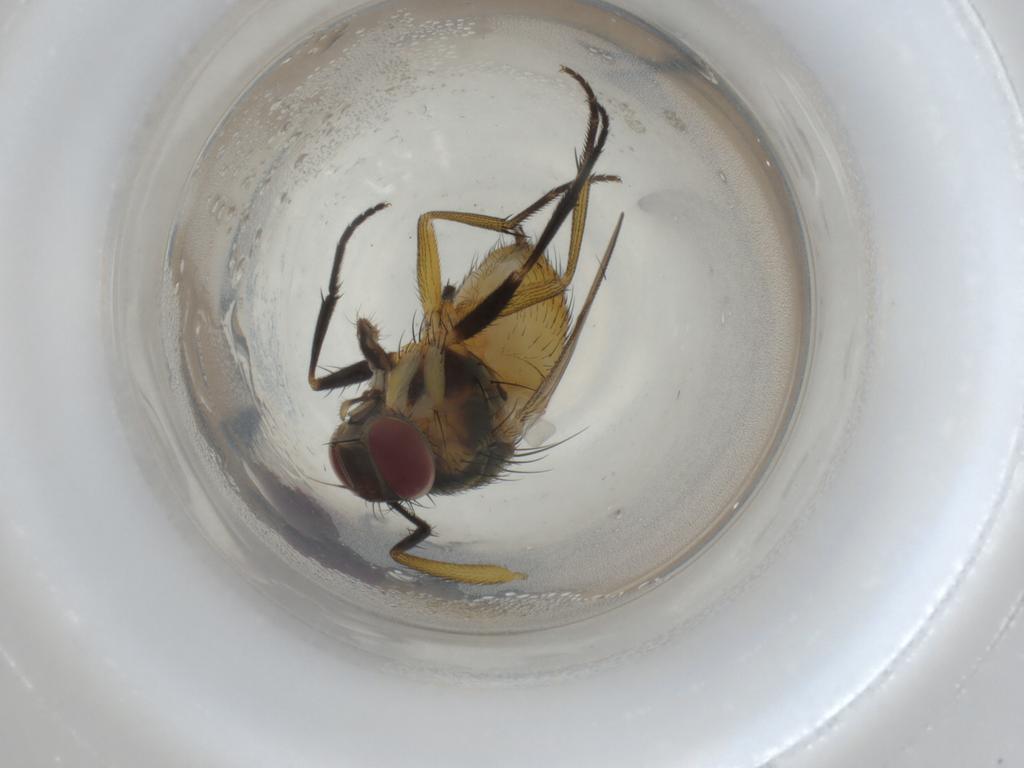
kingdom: Animalia
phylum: Arthropoda
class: Insecta
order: Diptera
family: Muscidae
